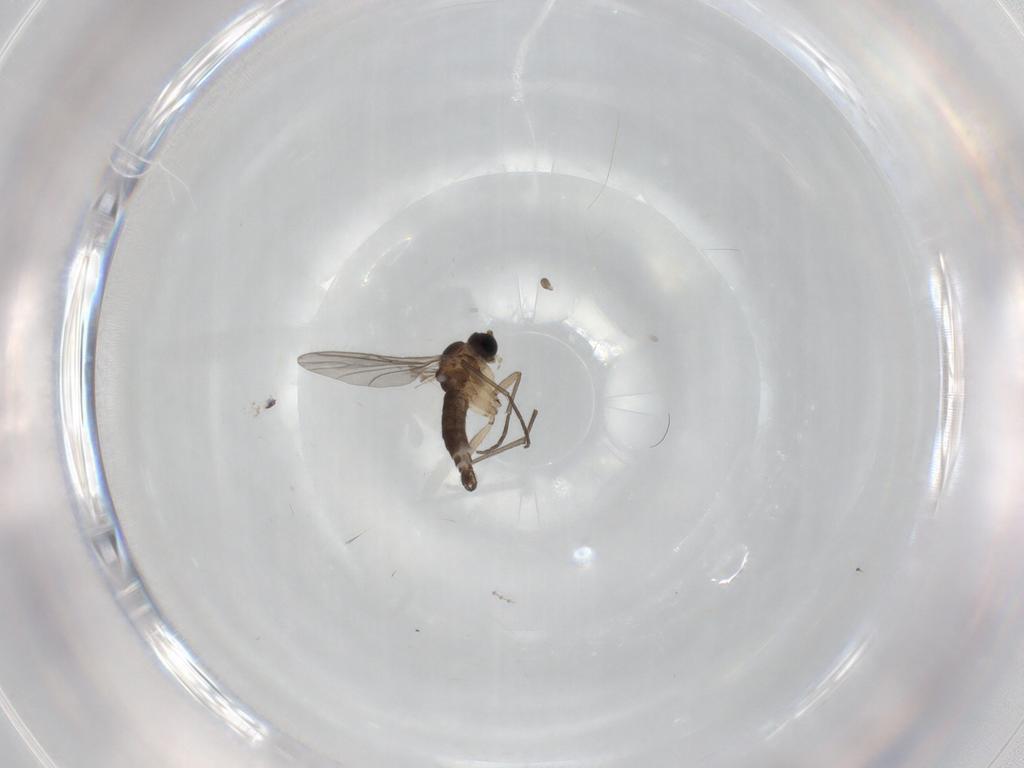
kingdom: Animalia
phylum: Arthropoda
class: Insecta
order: Diptera
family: Cecidomyiidae
